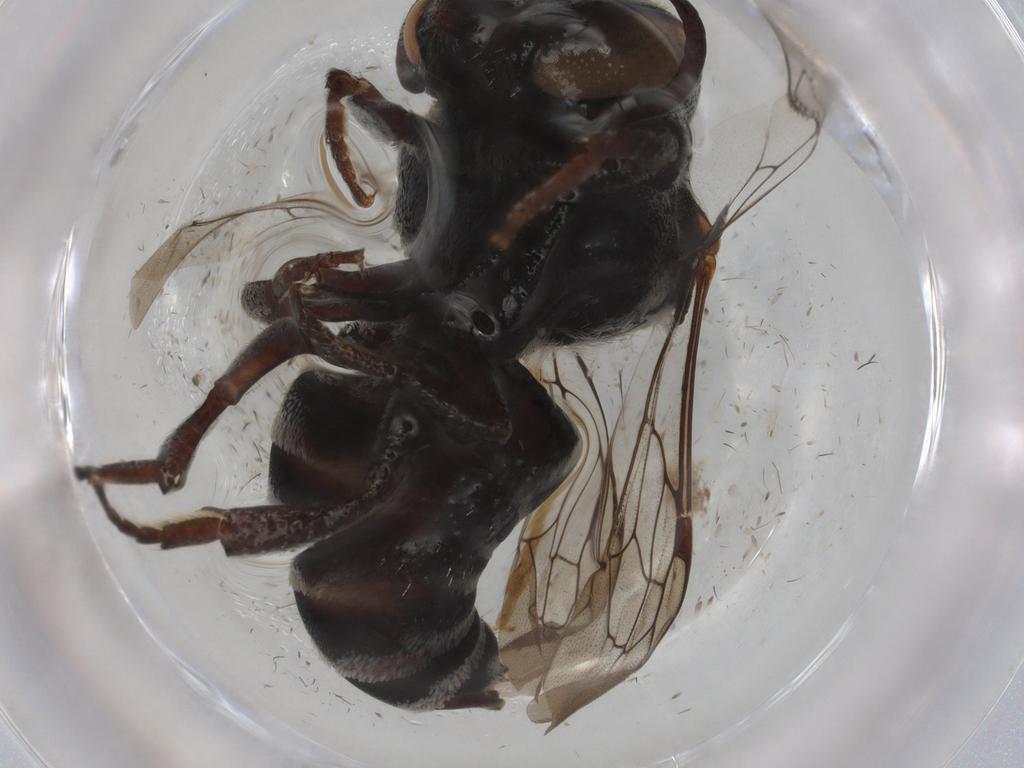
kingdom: Animalia
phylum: Arthropoda
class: Insecta
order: Hymenoptera
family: Megachilidae
